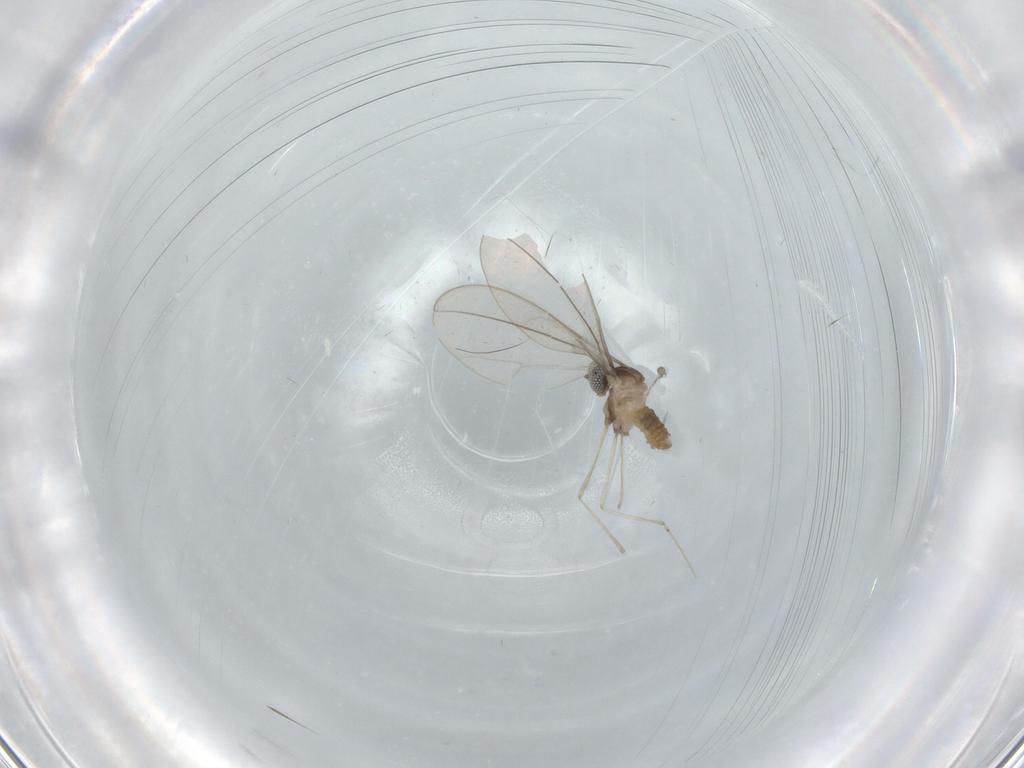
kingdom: Animalia
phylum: Arthropoda
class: Insecta
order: Diptera
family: Cecidomyiidae
